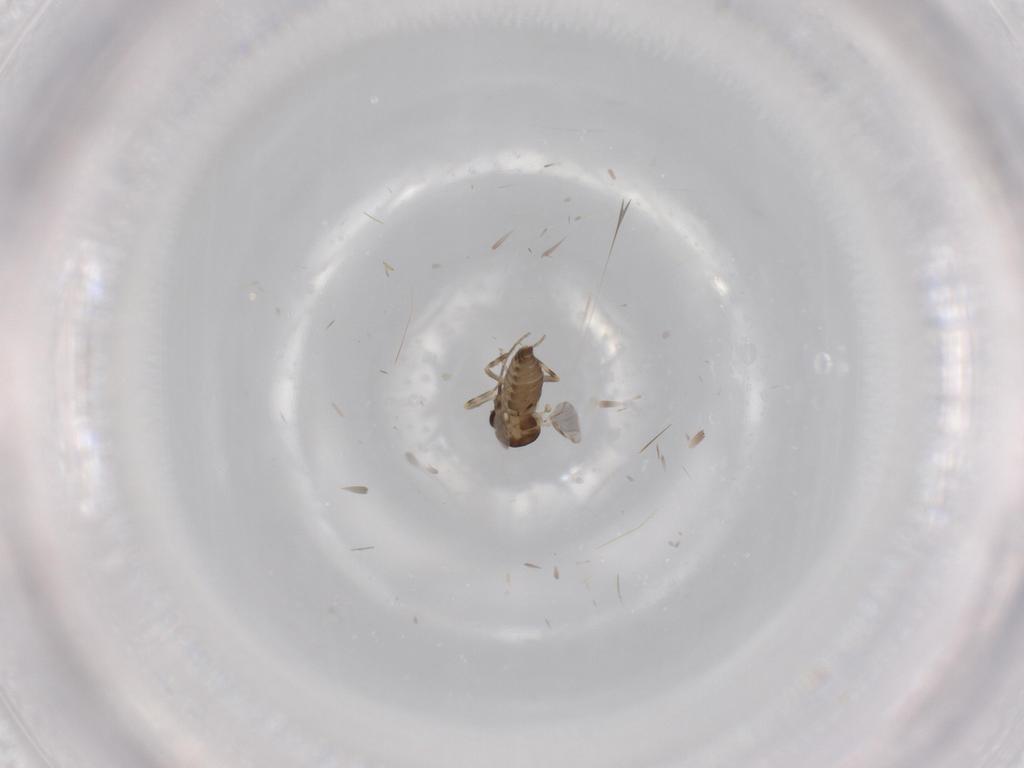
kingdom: Animalia
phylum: Arthropoda
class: Insecta
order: Diptera
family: Ceratopogonidae
